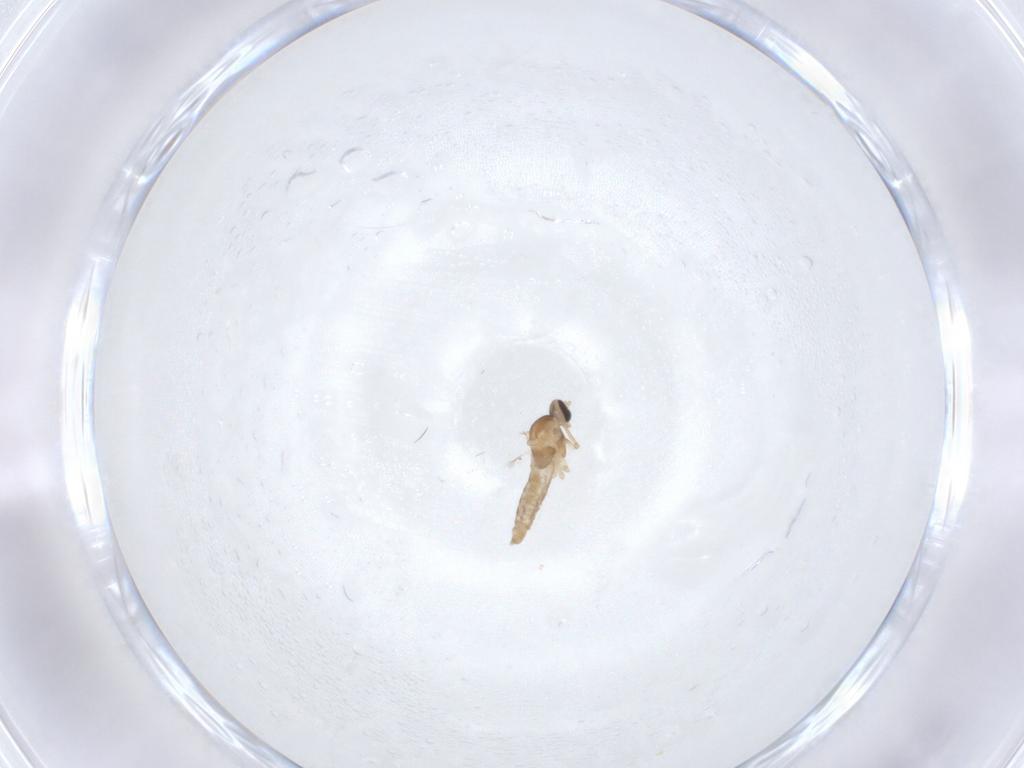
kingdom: Animalia
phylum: Arthropoda
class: Insecta
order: Diptera
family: Cecidomyiidae
